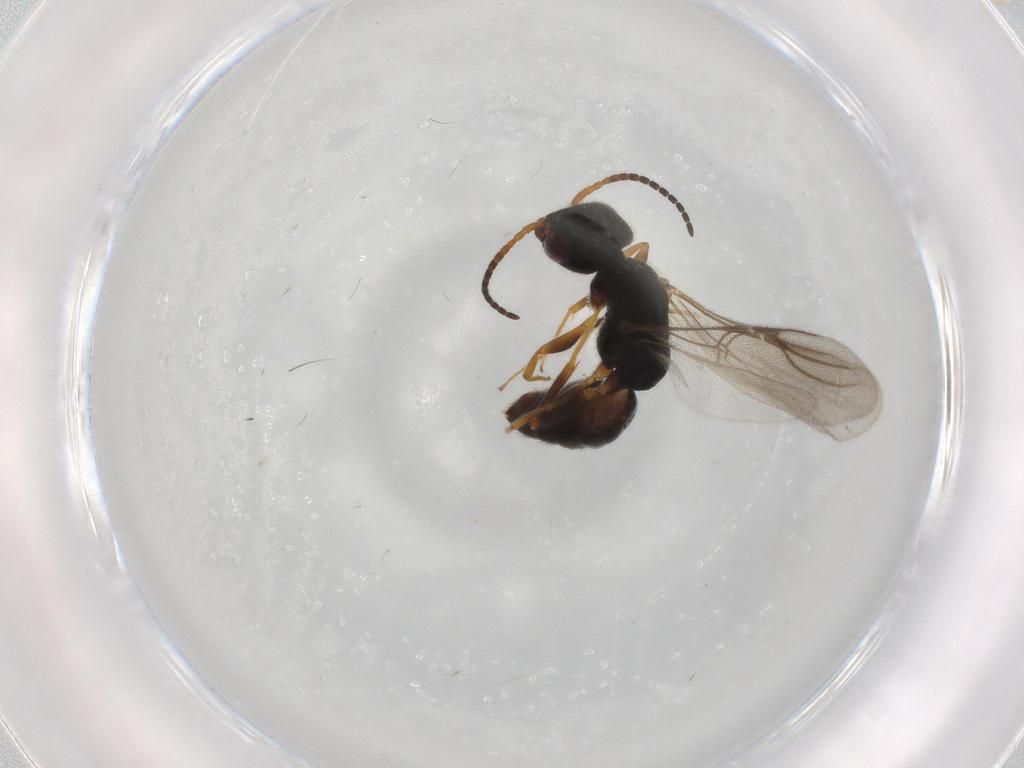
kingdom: Animalia
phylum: Arthropoda
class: Insecta
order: Hymenoptera
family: Bethylidae
